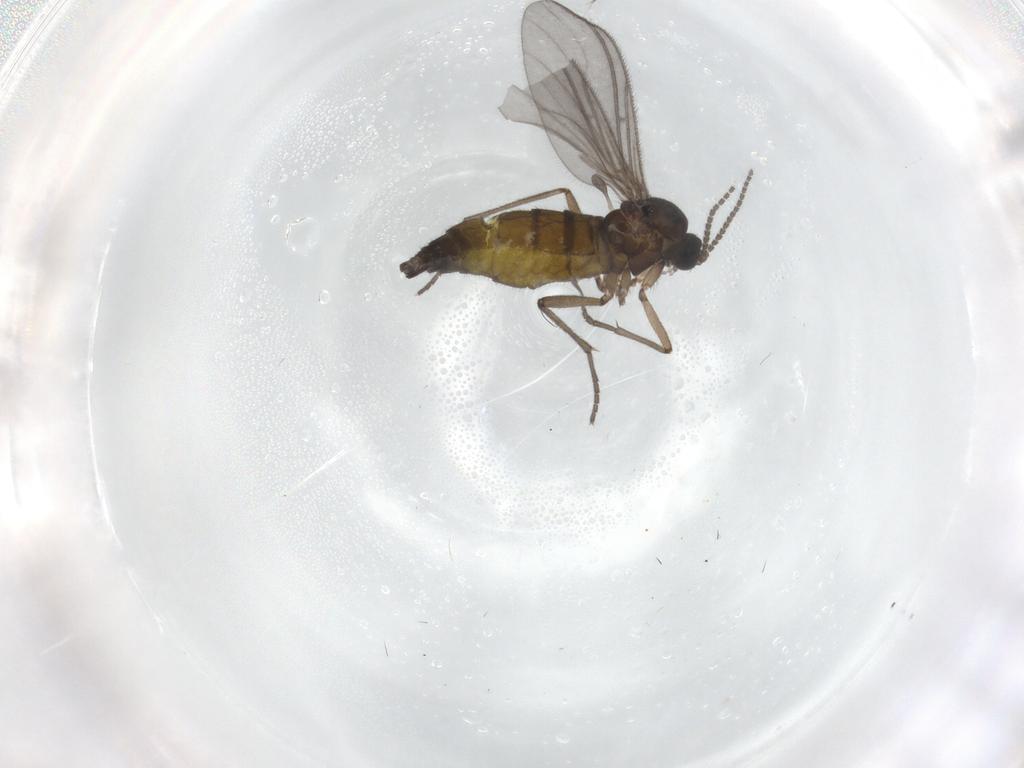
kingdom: Animalia
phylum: Arthropoda
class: Insecta
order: Diptera
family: Sciaridae
